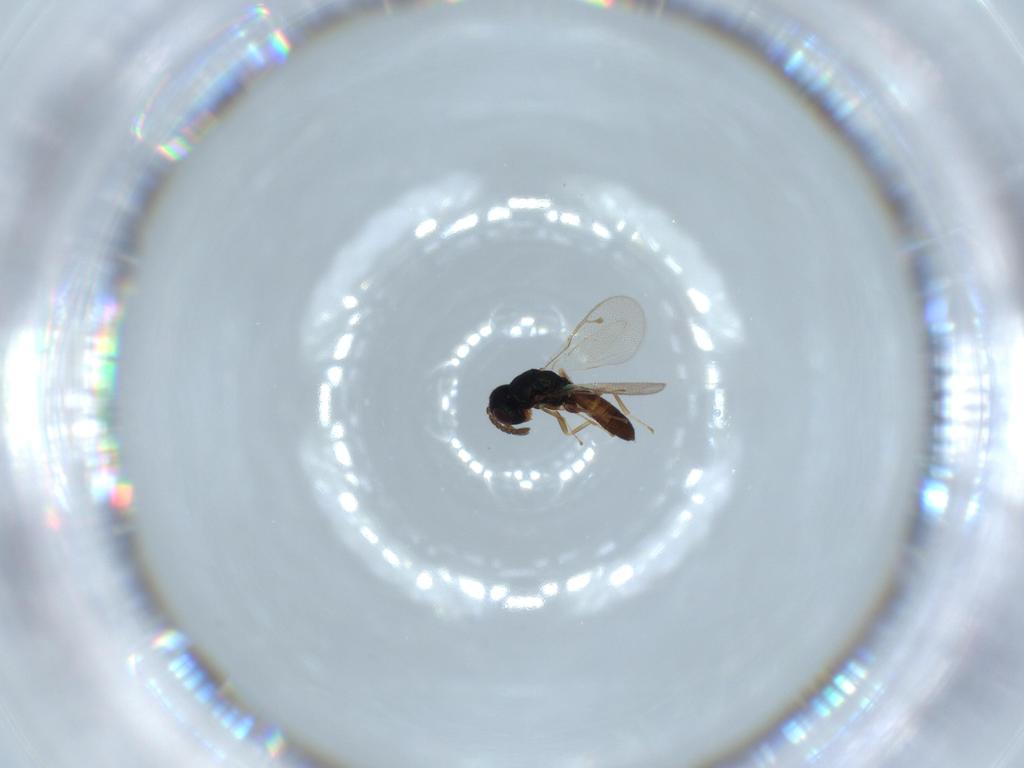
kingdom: Animalia
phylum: Arthropoda
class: Insecta
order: Hymenoptera
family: Pteromalidae
